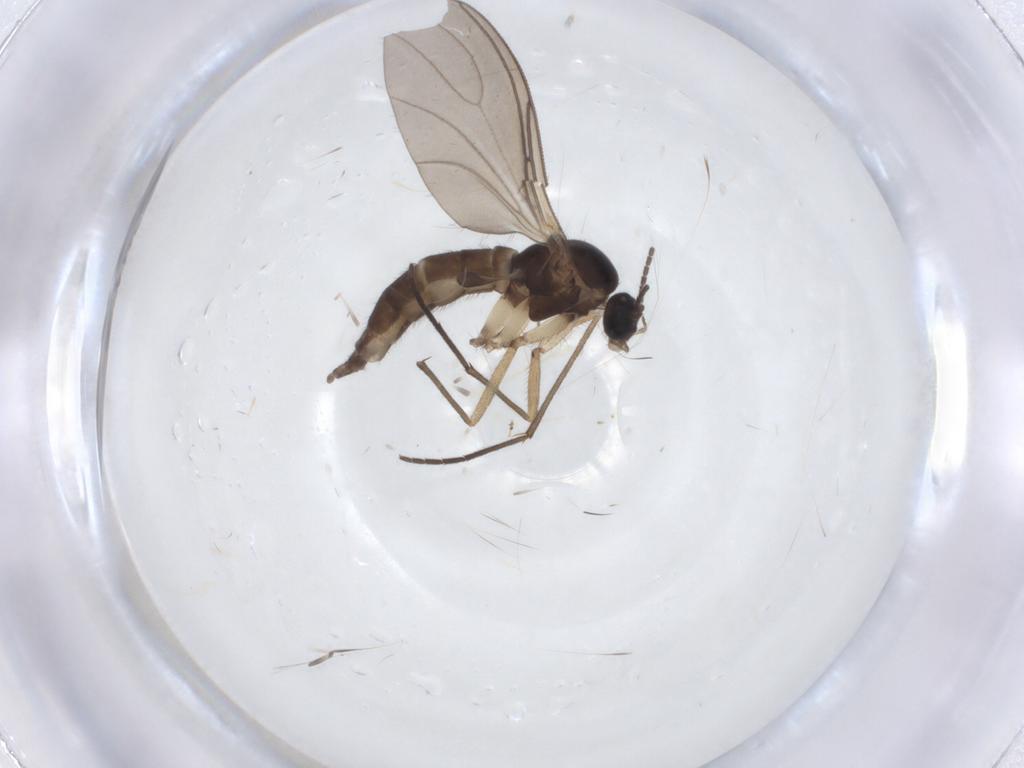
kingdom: Animalia
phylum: Arthropoda
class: Insecta
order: Diptera
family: Sciaridae
